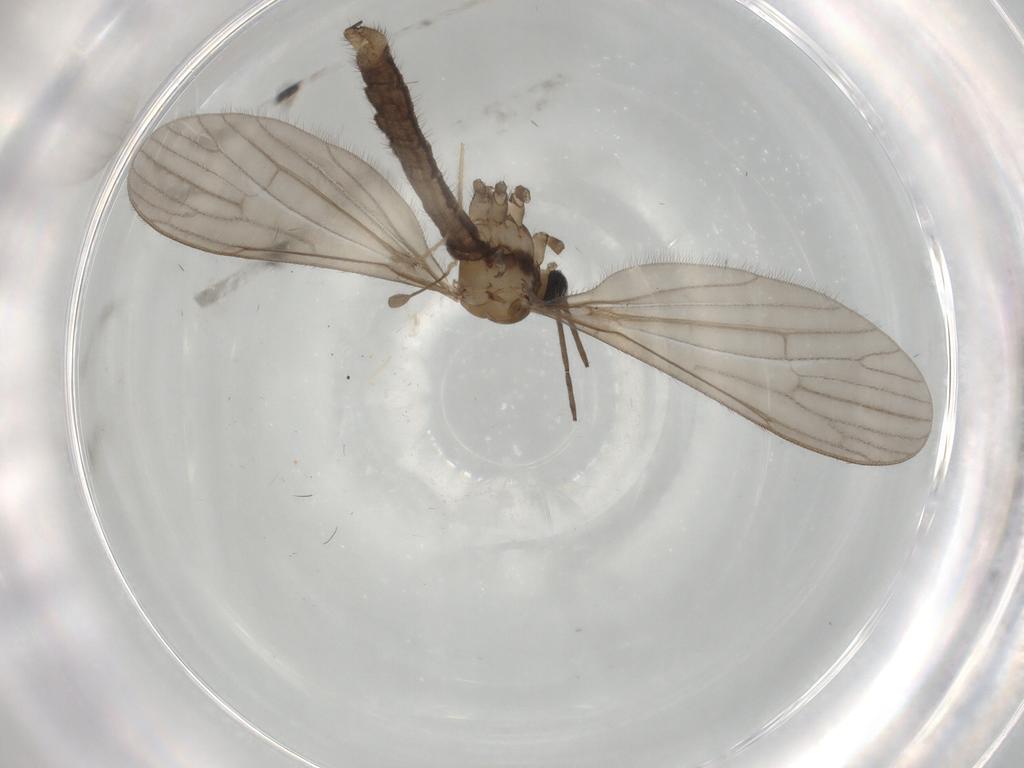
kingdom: Animalia
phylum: Arthropoda
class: Insecta
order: Diptera
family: Limoniidae
